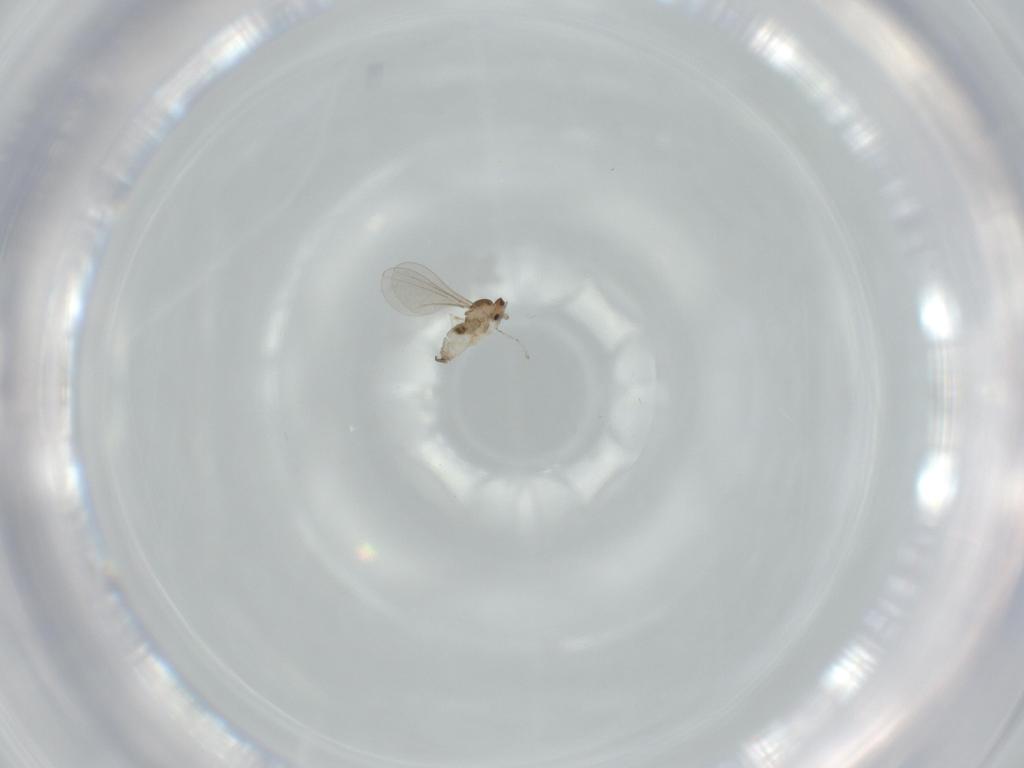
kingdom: Animalia
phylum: Arthropoda
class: Insecta
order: Diptera
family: Cecidomyiidae
